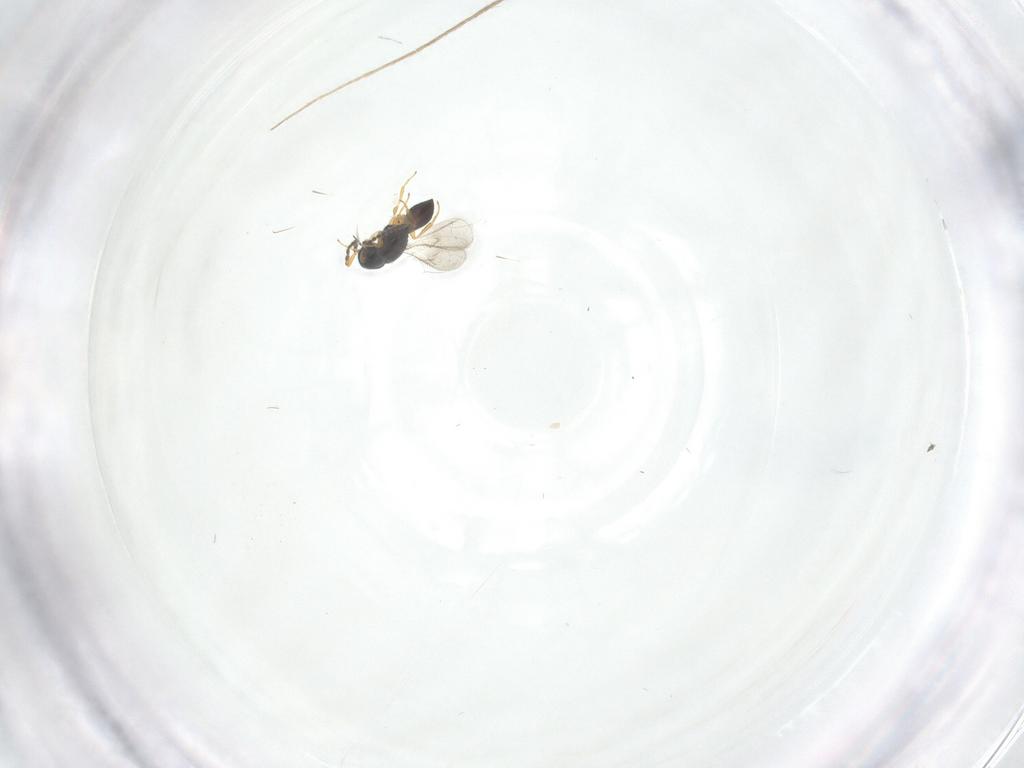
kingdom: Animalia
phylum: Arthropoda
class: Insecta
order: Hymenoptera
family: Scelionidae
